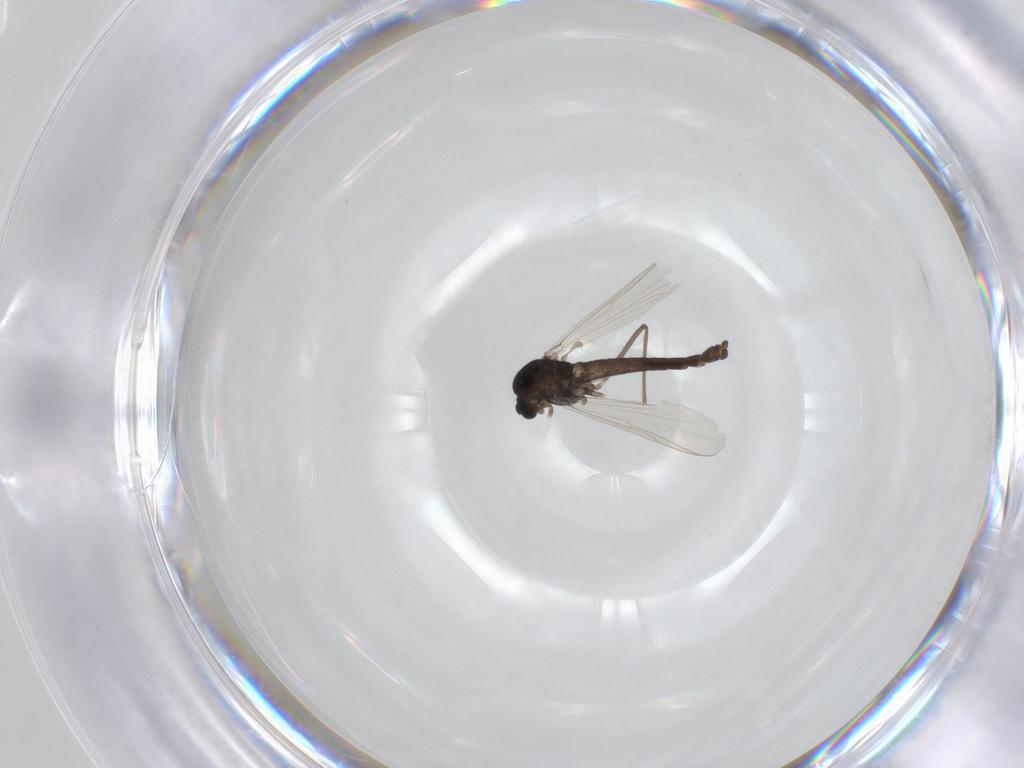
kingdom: Animalia
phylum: Arthropoda
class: Insecta
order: Diptera
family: Chironomidae
